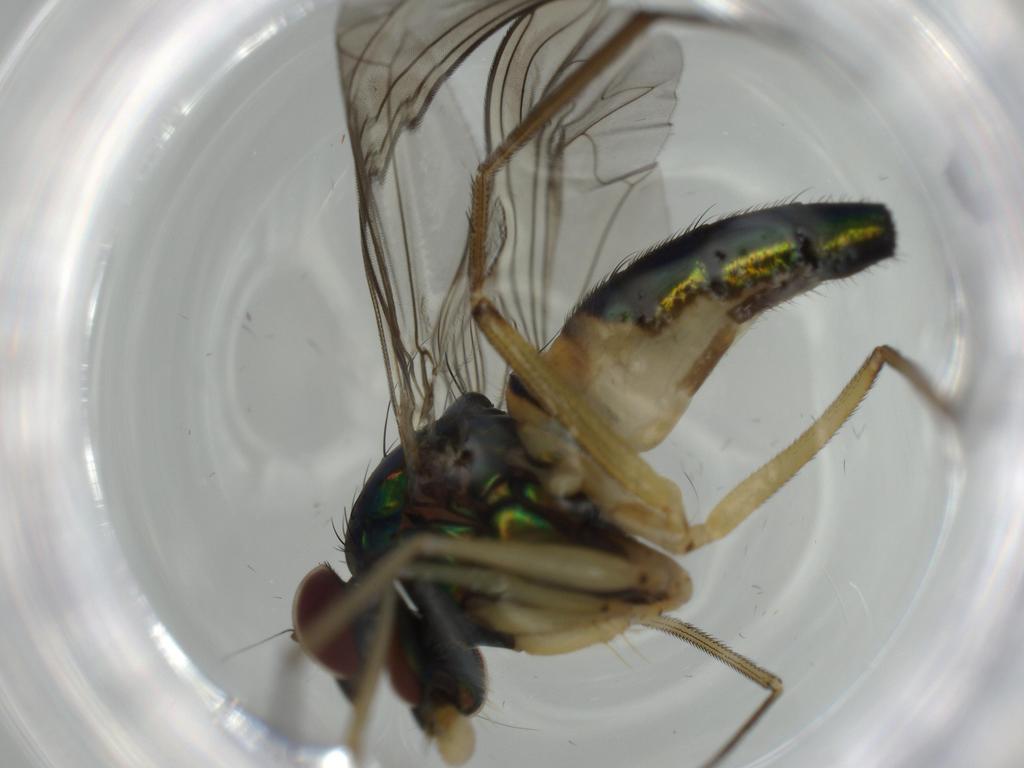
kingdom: Animalia
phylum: Arthropoda
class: Insecta
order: Diptera
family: Dolichopodidae
